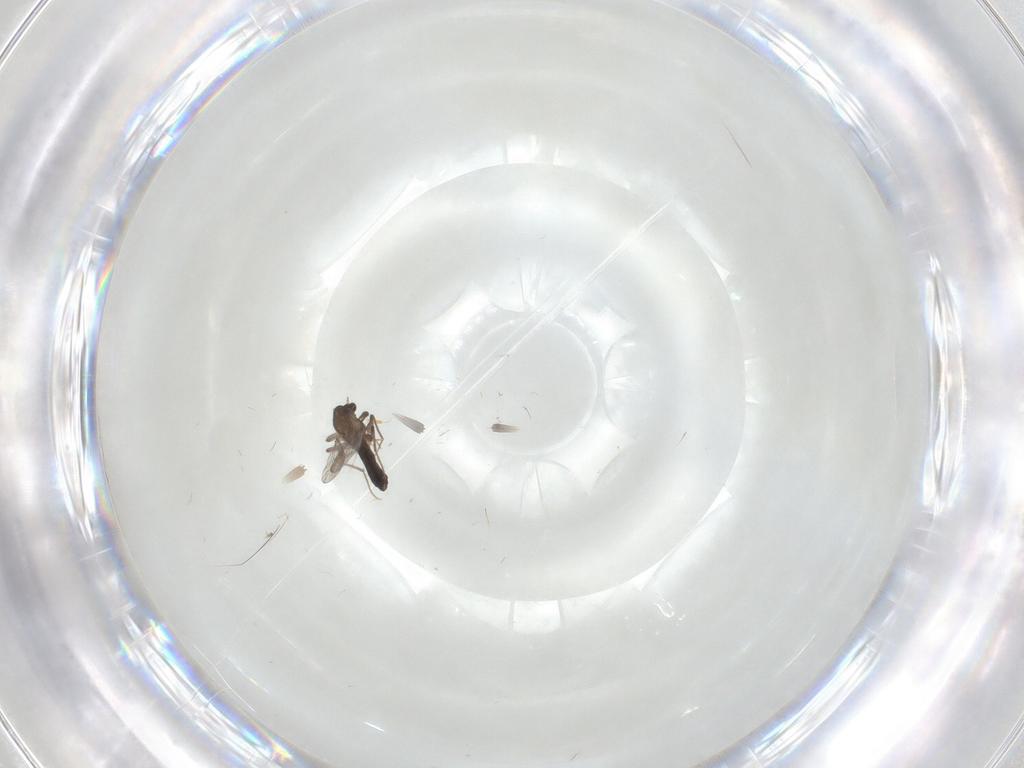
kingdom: Animalia
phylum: Arthropoda
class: Insecta
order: Diptera
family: Chironomidae
